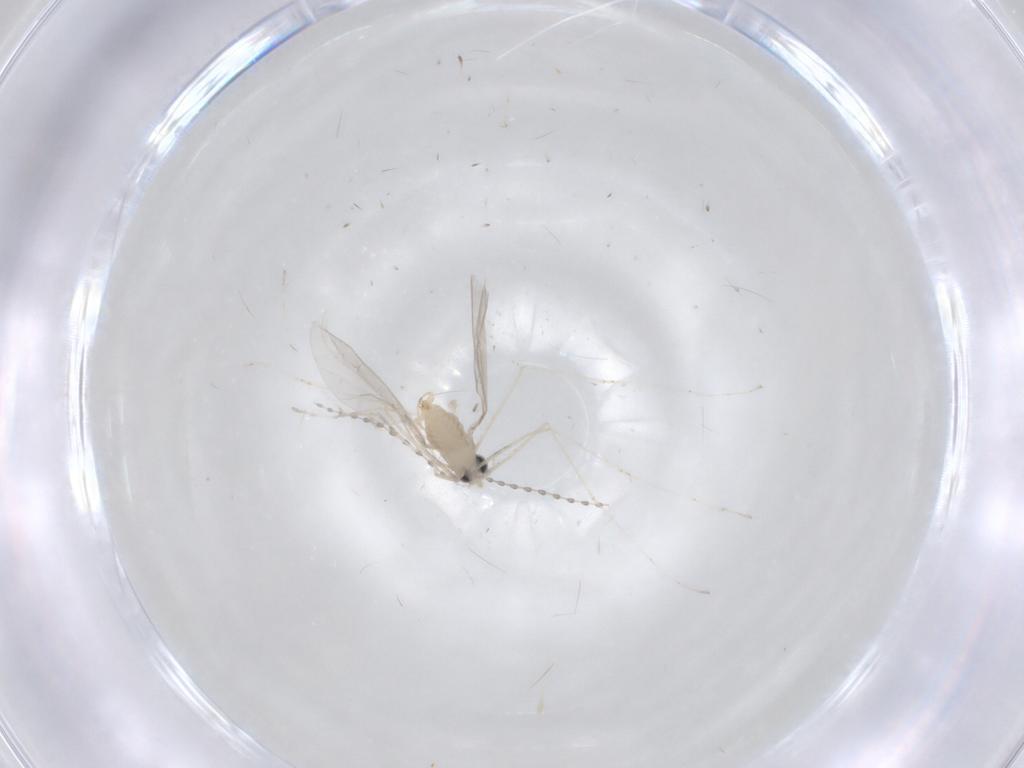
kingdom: Animalia
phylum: Arthropoda
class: Insecta
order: Diptera
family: Cecidomyiidae
